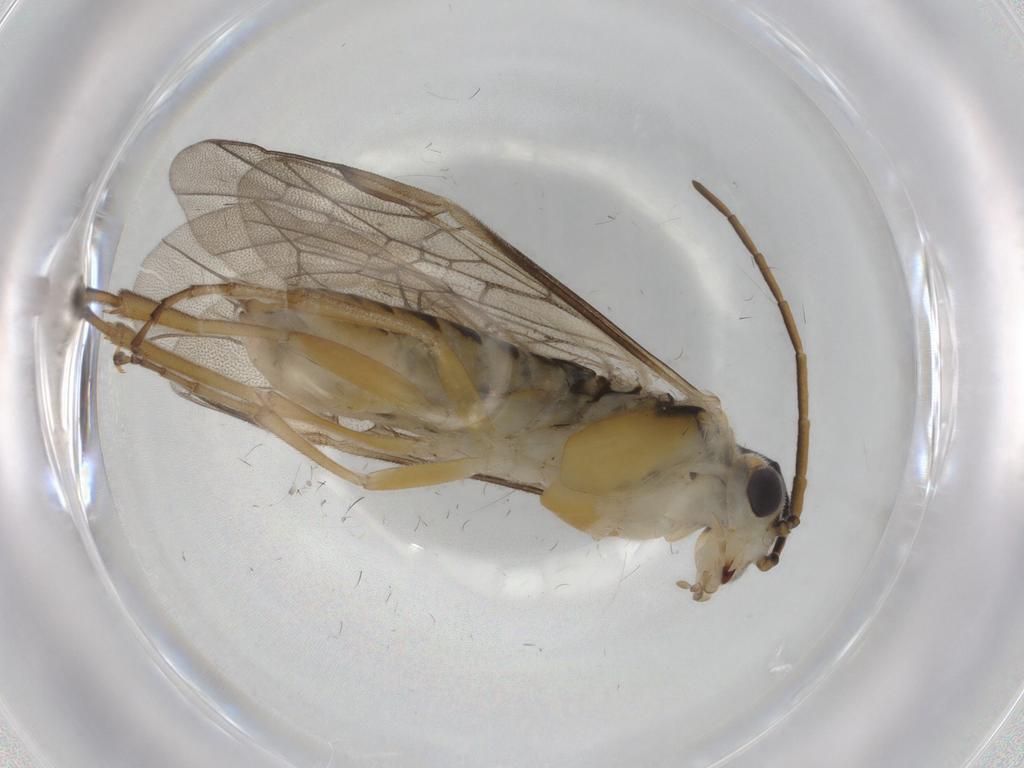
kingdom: Animalia
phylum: Arthropoda
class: Insecta
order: Hymenoptera
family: Tenthredinidae
